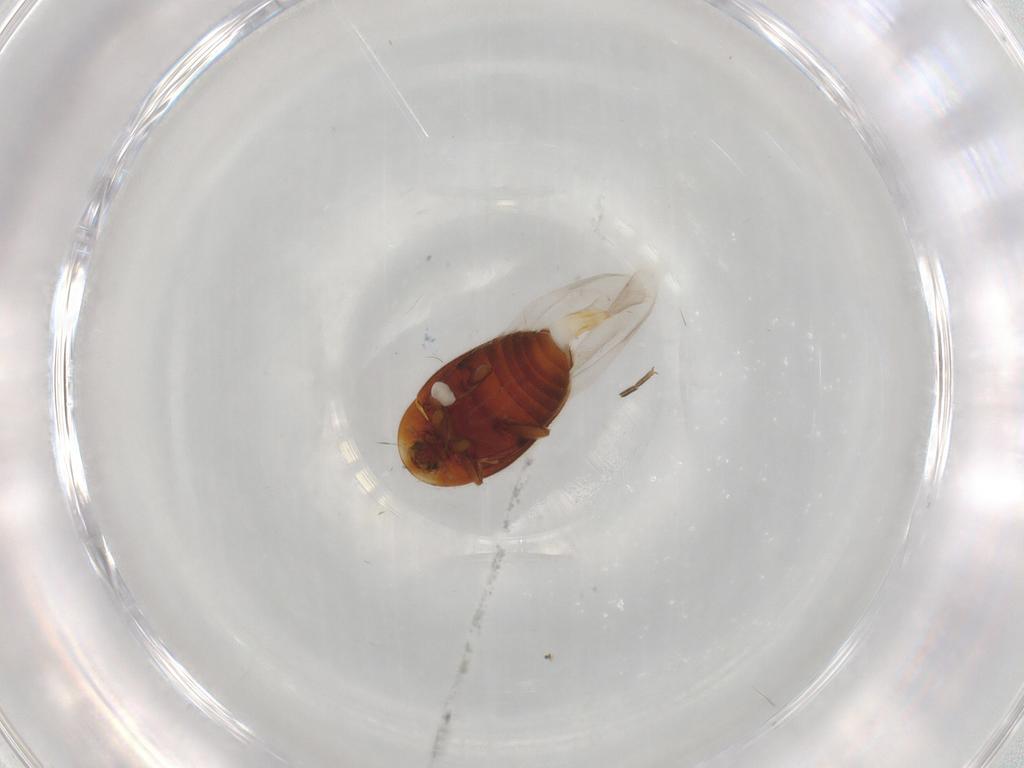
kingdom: Animalia
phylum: Arthropoda
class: Insecta
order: Coleoptera
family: Corylophidae
